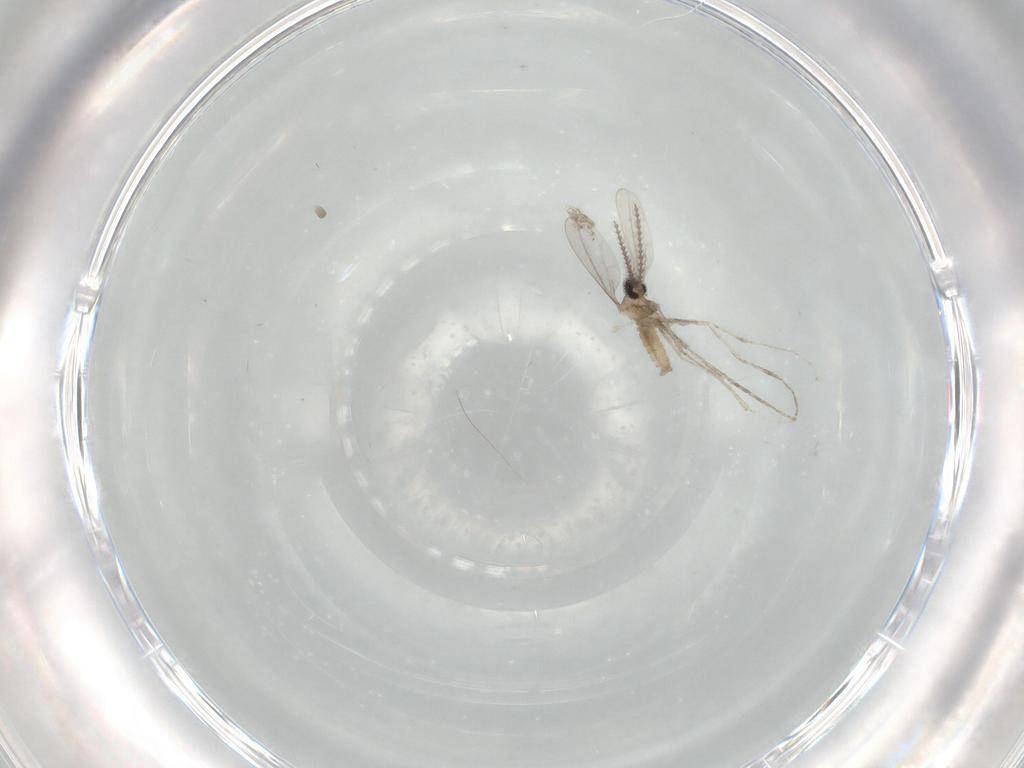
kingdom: Animalia
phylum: Arthropoda
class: Insecta
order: Diptera
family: Cecidomyiidae
